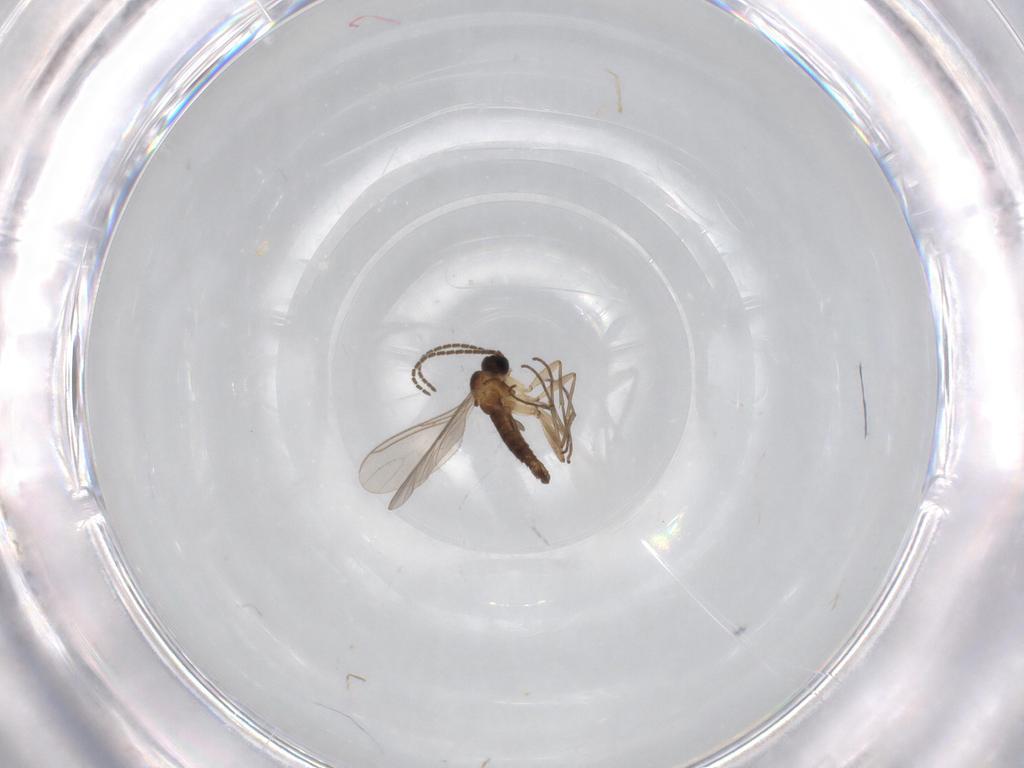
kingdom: Animalia
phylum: Arthropoda
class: Insecta
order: Diptera
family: Sciaridae
